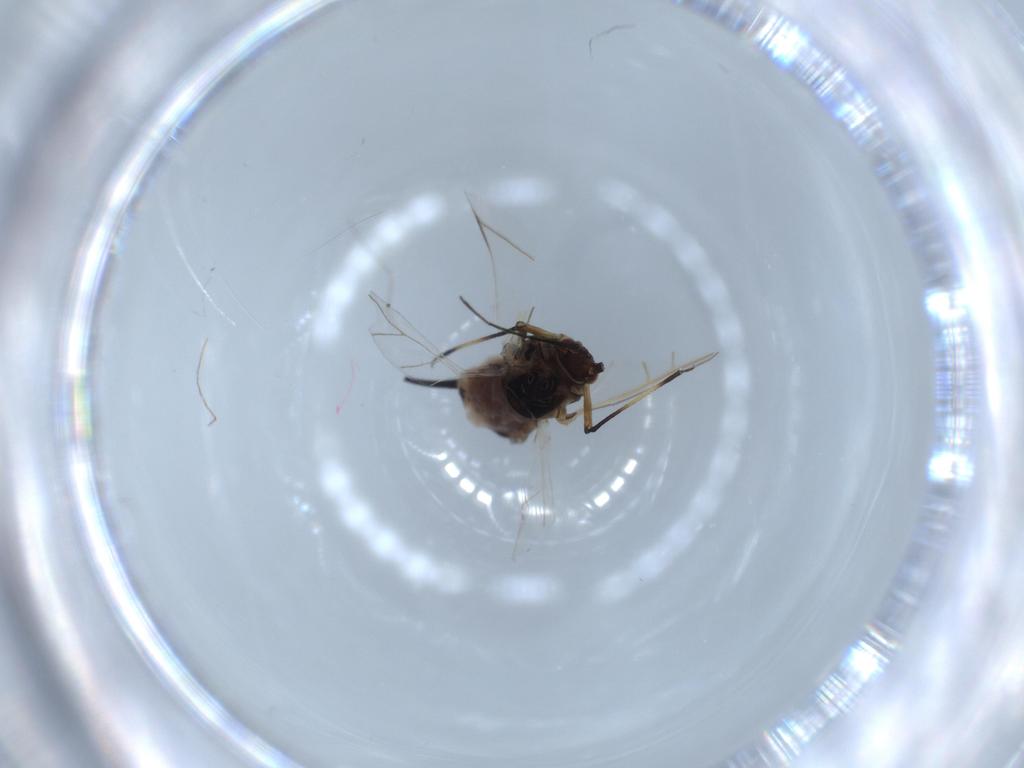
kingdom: Animalia
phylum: Arthropoda
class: Insecta
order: Hemiptera
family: Aphididae
